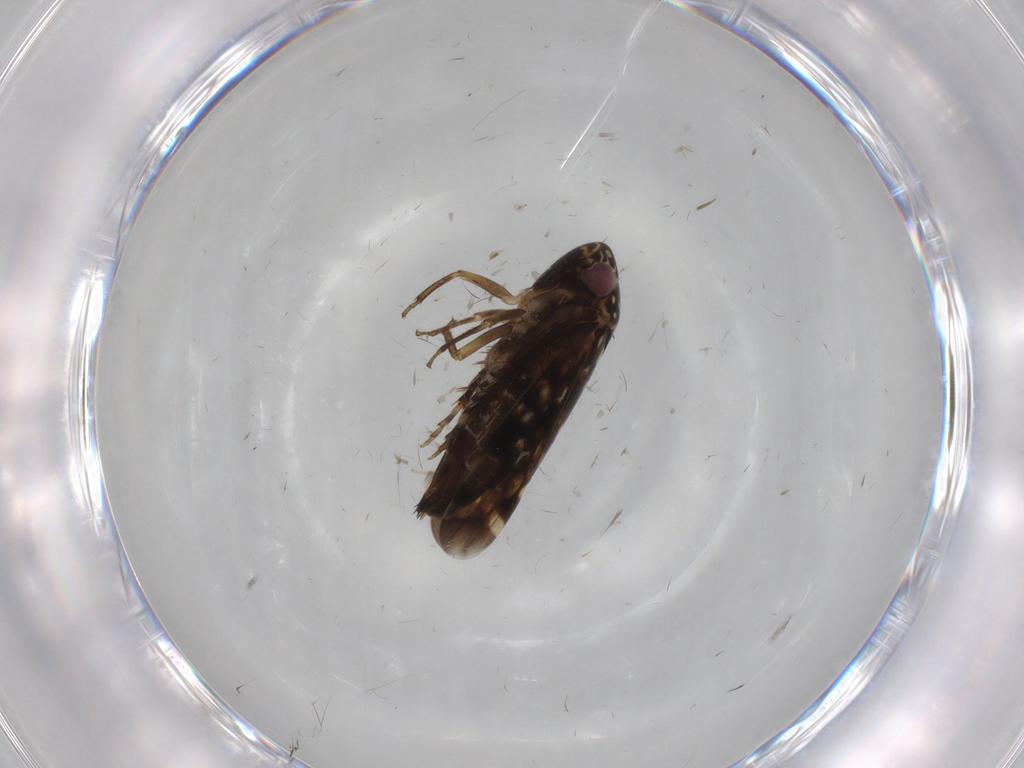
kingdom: Animalia
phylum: Arthropoda
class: Insecta
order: Hemiptera
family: Cicadellidae
